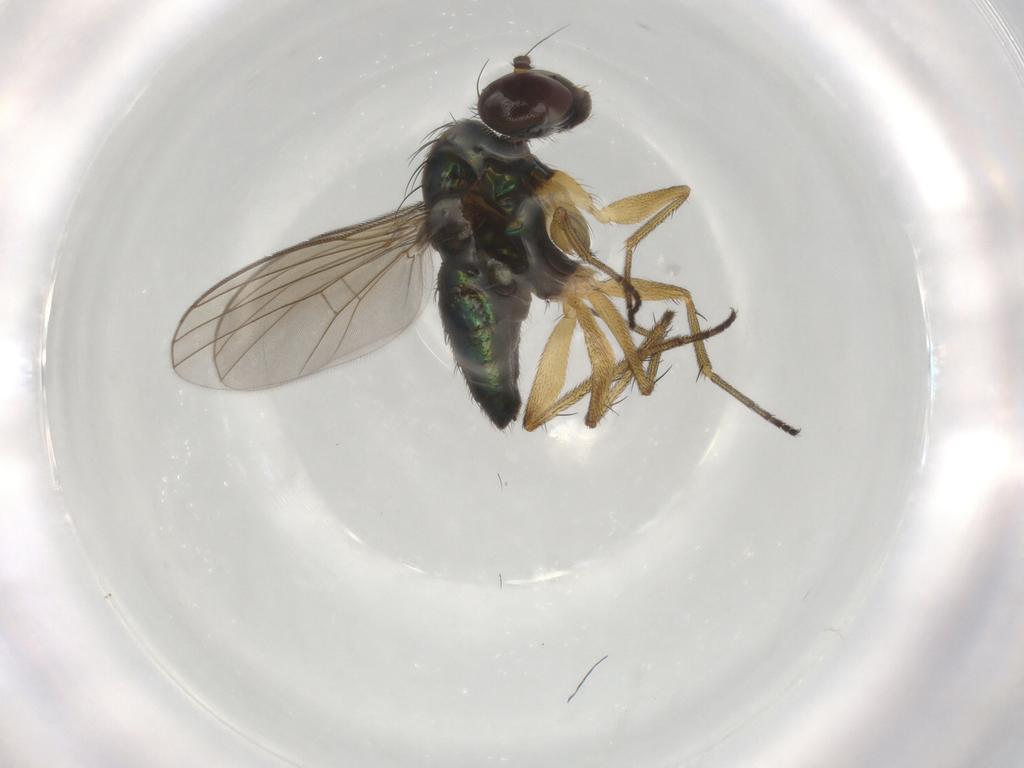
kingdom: Animalia
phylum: Arthropoda
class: Insecta
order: Diptera
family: Dolichopodidae
